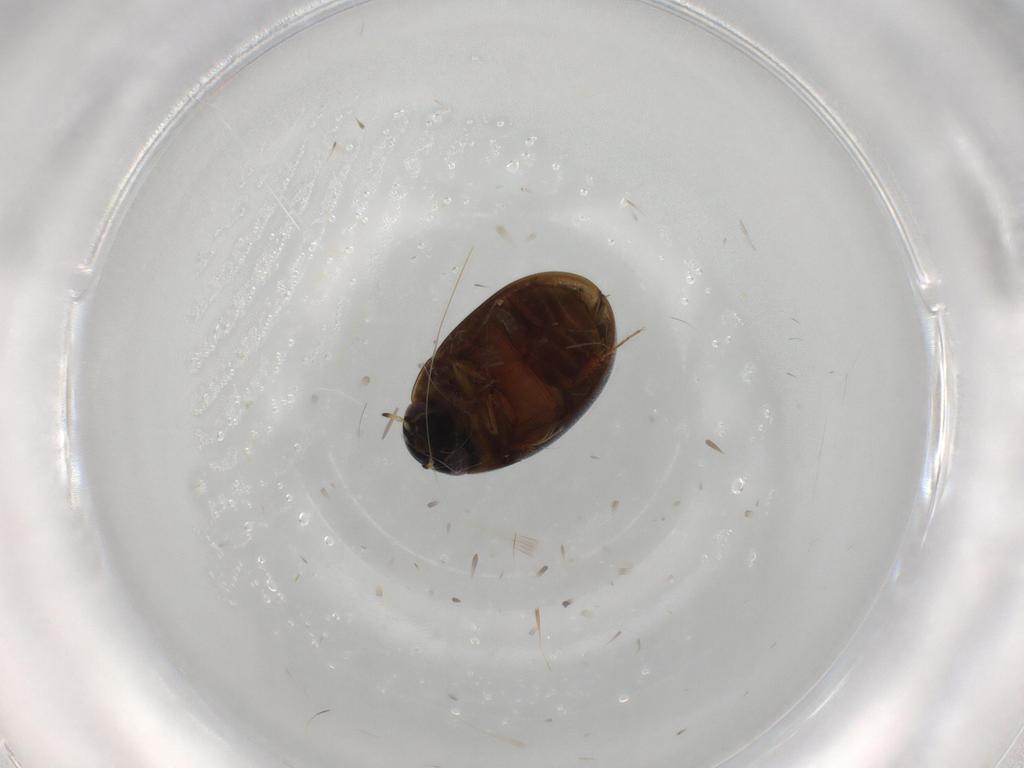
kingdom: Animalia
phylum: Arthropoda
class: Insecta
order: Coleoptera
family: Hydrophilidae
